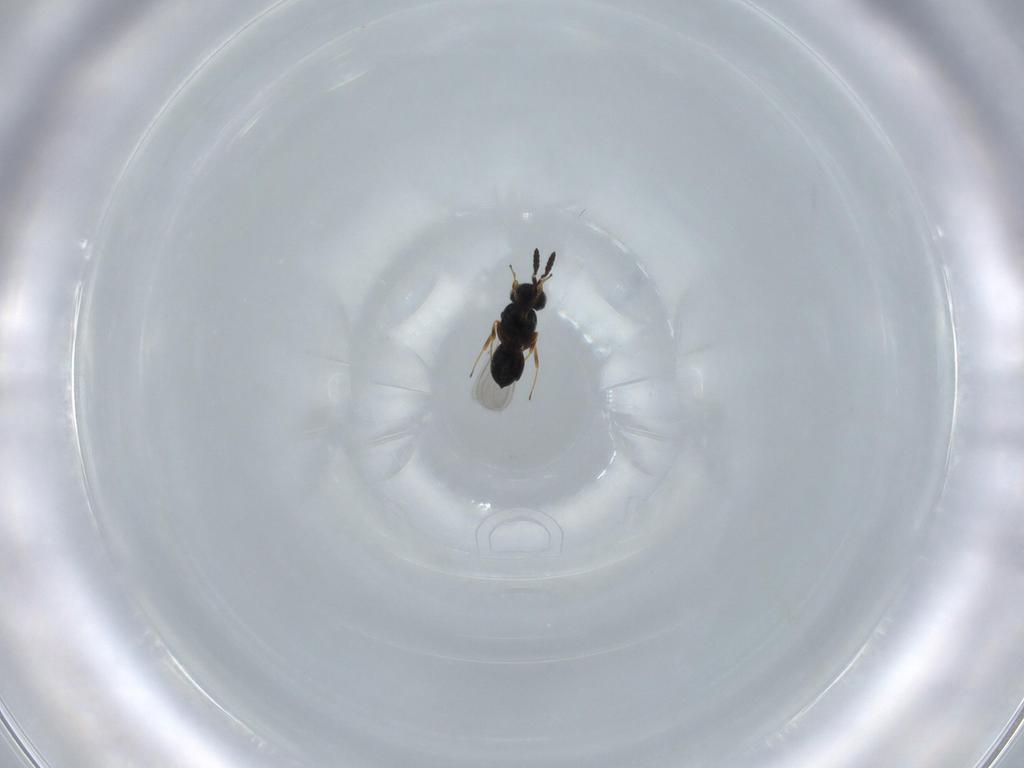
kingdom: Animalia
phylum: Arthropoda
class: Insecta
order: Hymenoptera
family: Scelionidae
